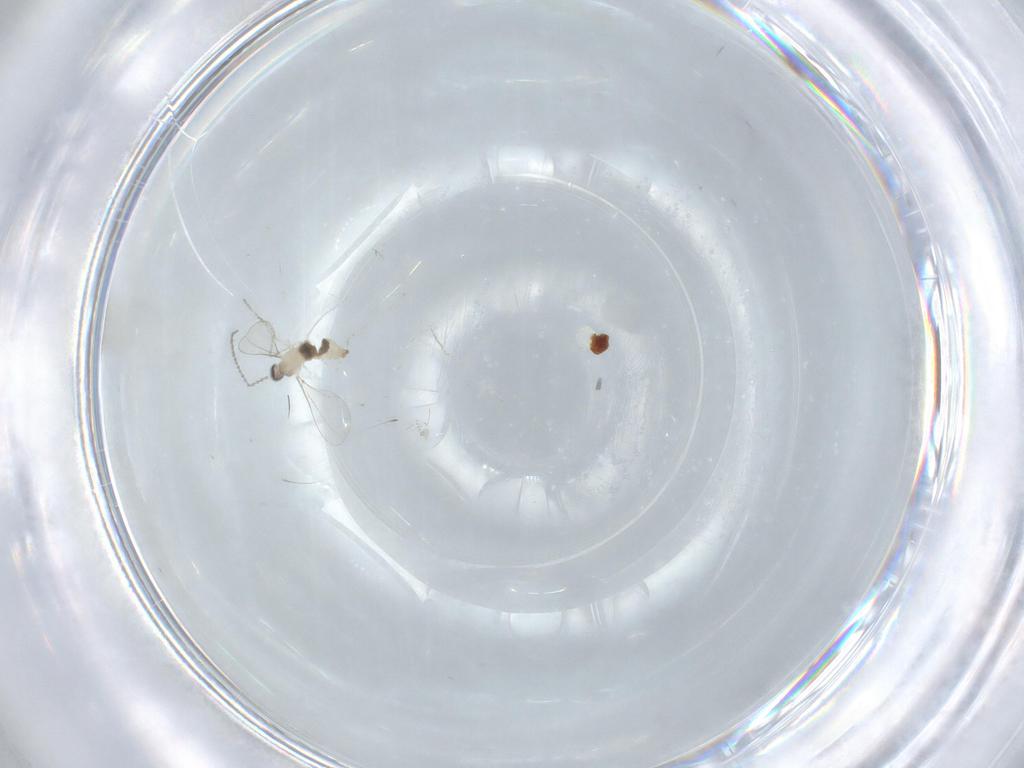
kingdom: Animalia
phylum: Arthropoda
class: Insecta
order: Diptera
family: Cecidomyiidae
